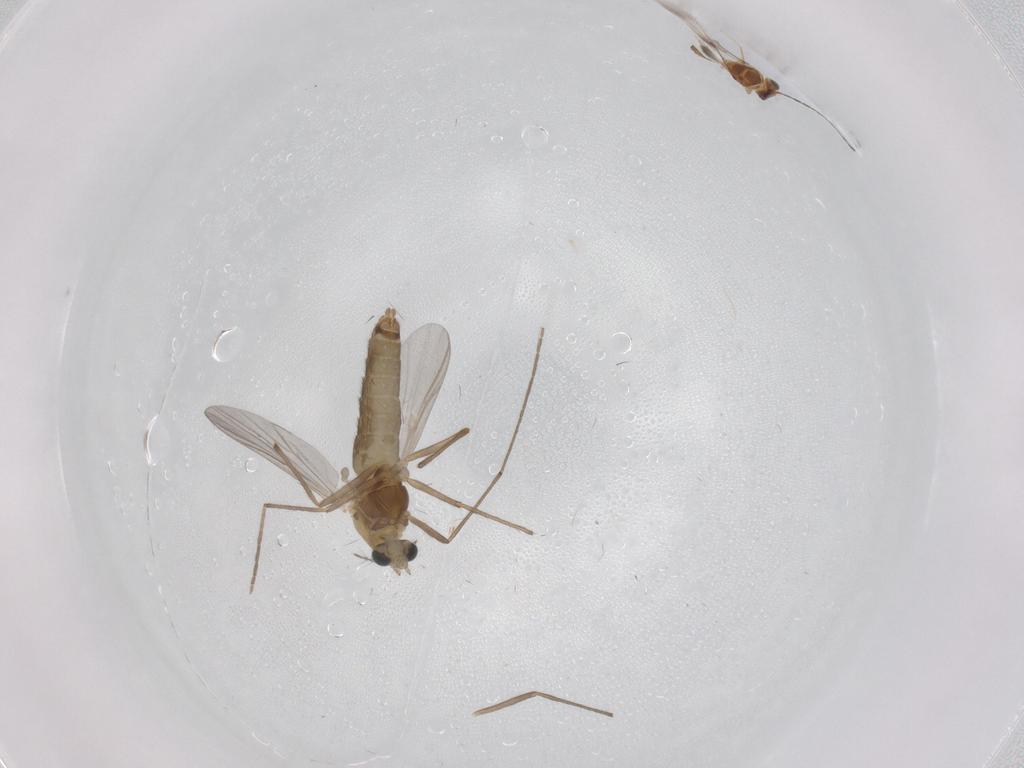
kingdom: Animalia
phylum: Arthropoda
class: Insecta
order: Diptera
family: Chironomidae
